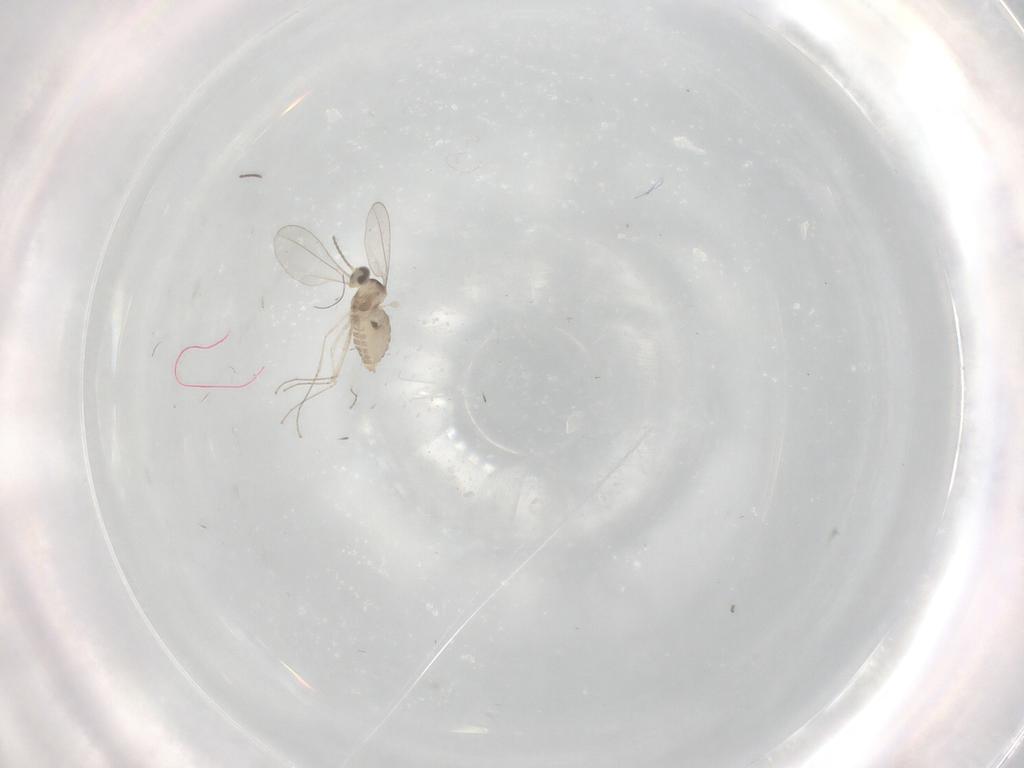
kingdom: Animalia
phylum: Arthropoda
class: Insecta
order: Diptera
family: Cecidomyiidae
